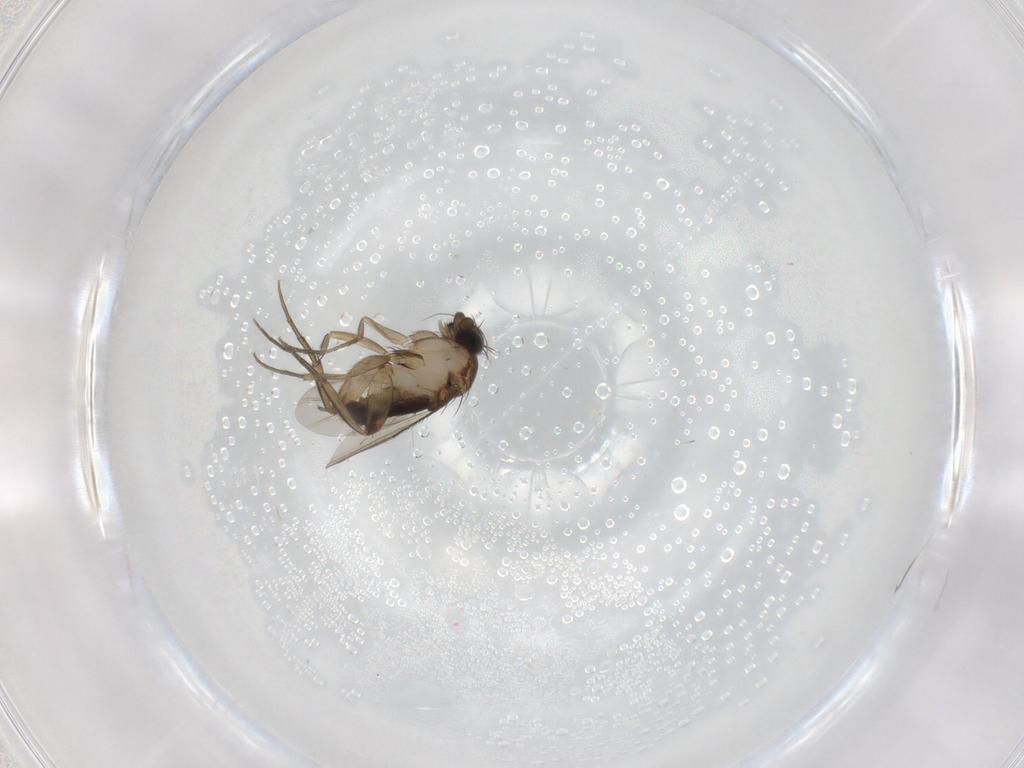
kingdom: Animalia
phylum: Arthropoda
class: Insecta
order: Diptera
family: Phoridae
